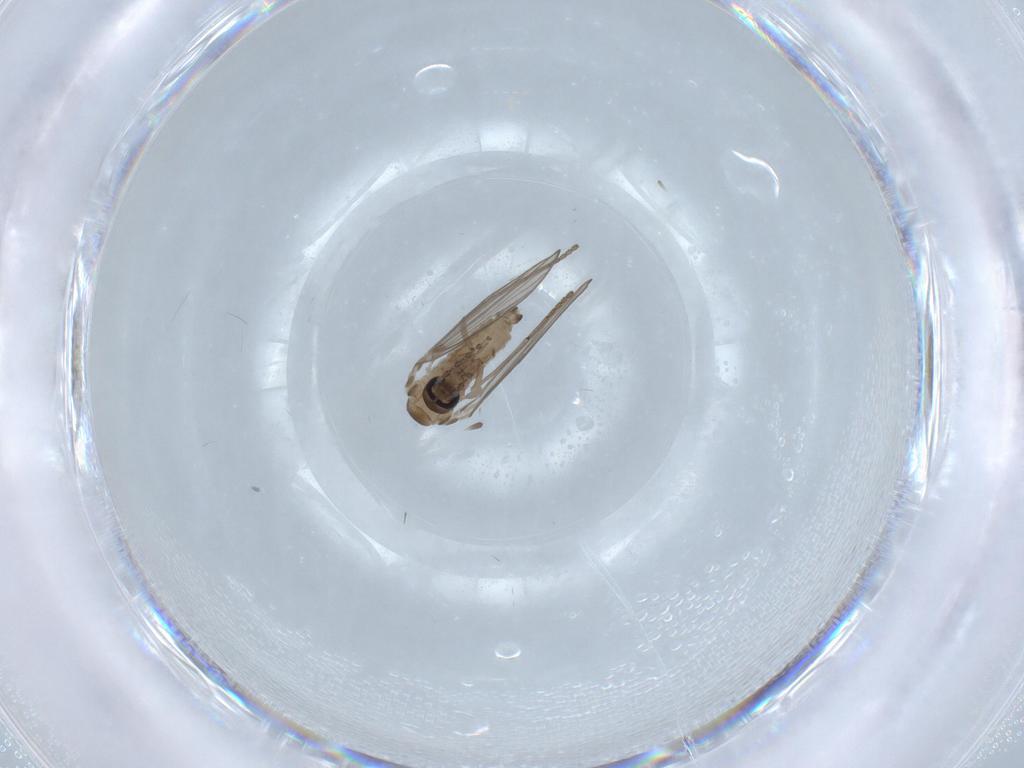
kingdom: Animalia
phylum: Arthropoda
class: Insecta
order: Diptera
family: Psychodidae
